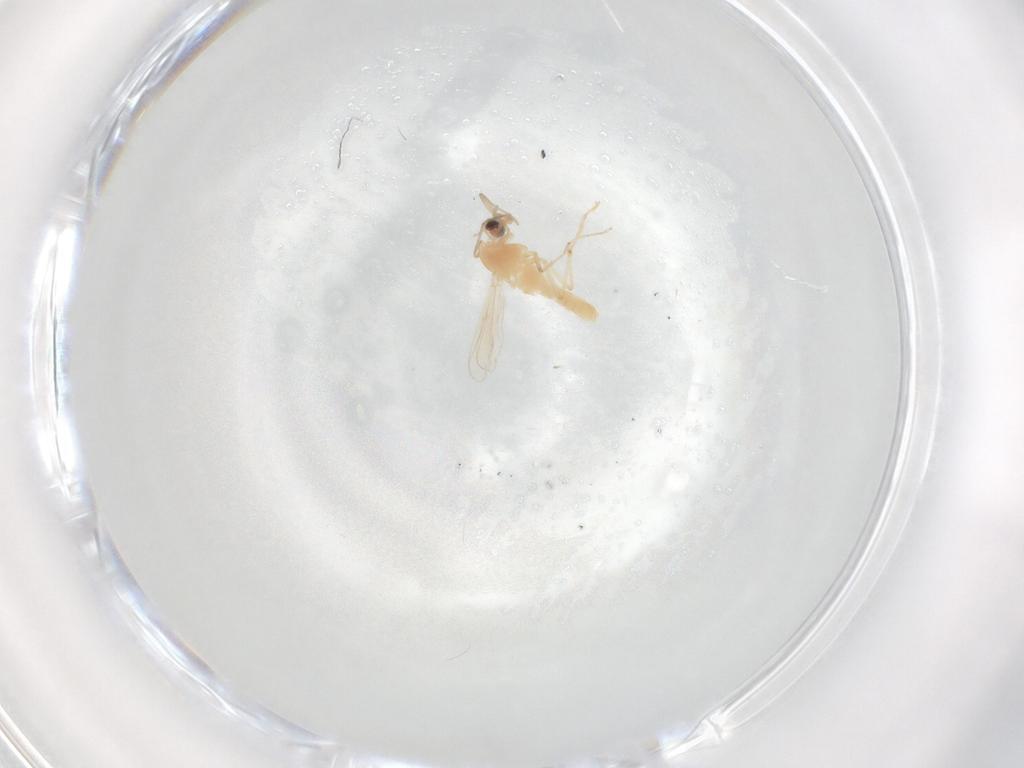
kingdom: Animalia
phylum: Arthropoda
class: Insecta
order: Diptera
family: Chironomidae
